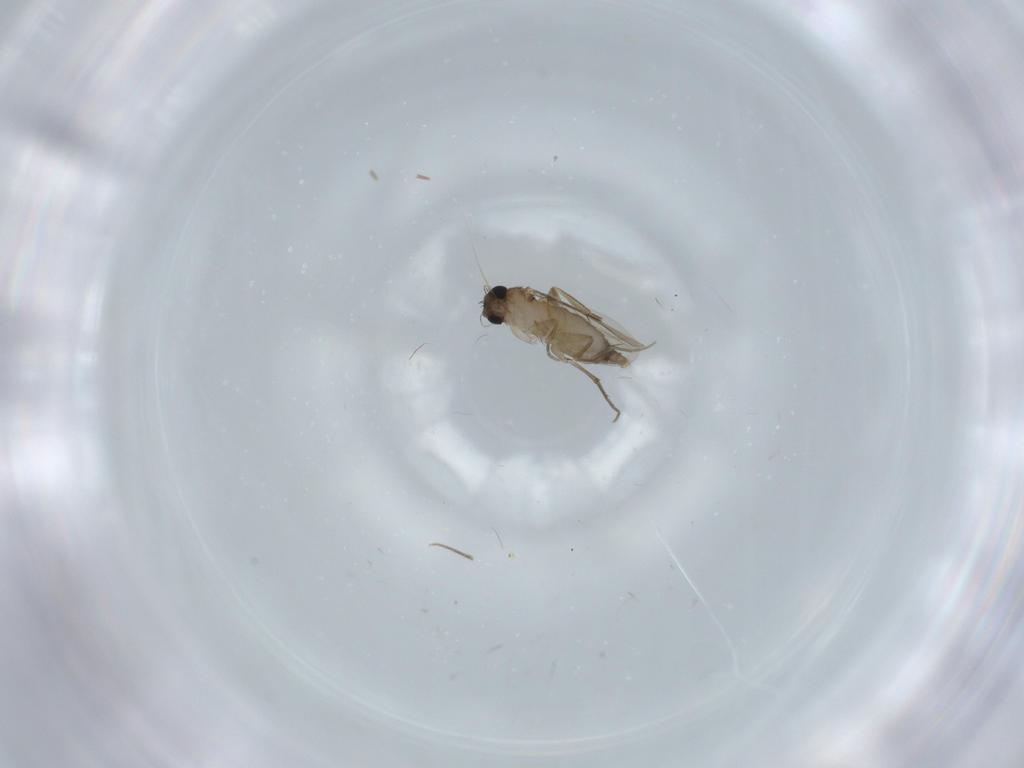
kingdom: Animalia
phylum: Arthropoda
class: Insecta
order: Diptera
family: Phoridae
